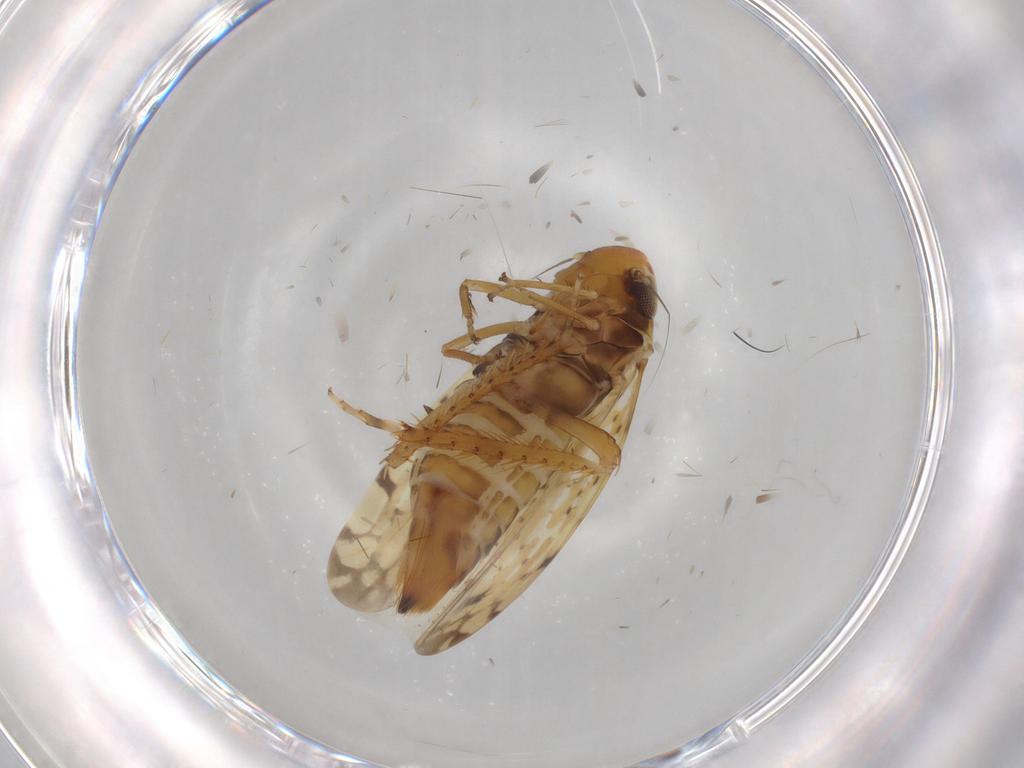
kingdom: Animalia
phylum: Arthropoda
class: Insecta
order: Hemiptera
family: Cicadellidae
